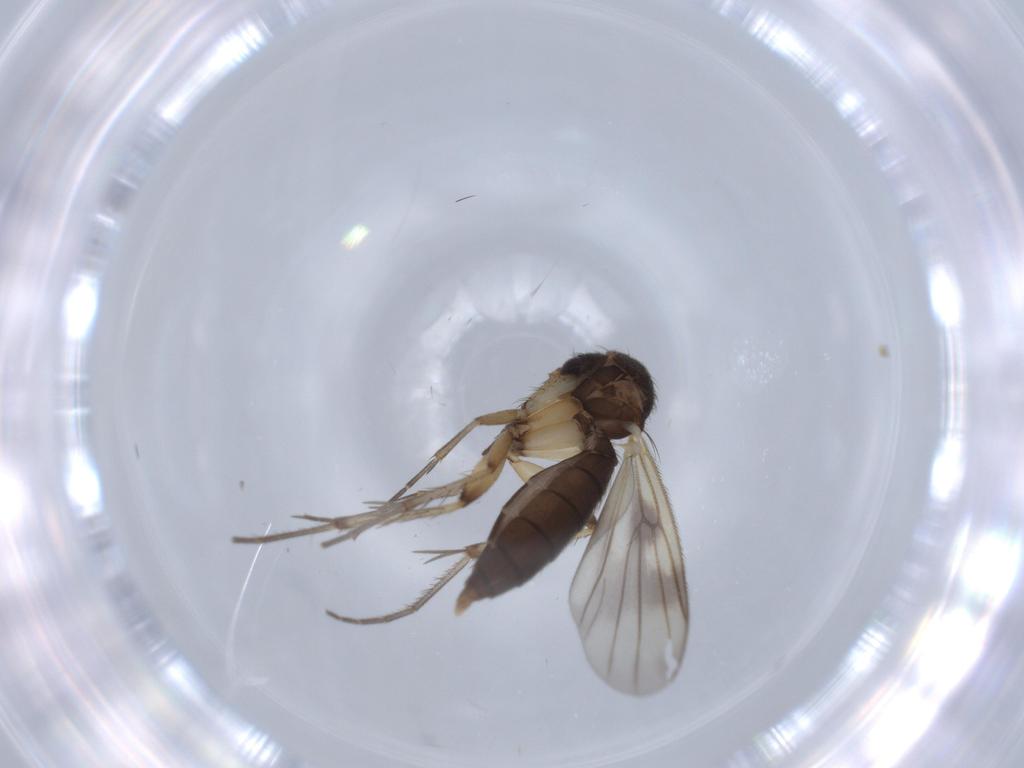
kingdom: Animalia
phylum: Arthropoda
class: Insecta
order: Diptera
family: Mycetophilidae
